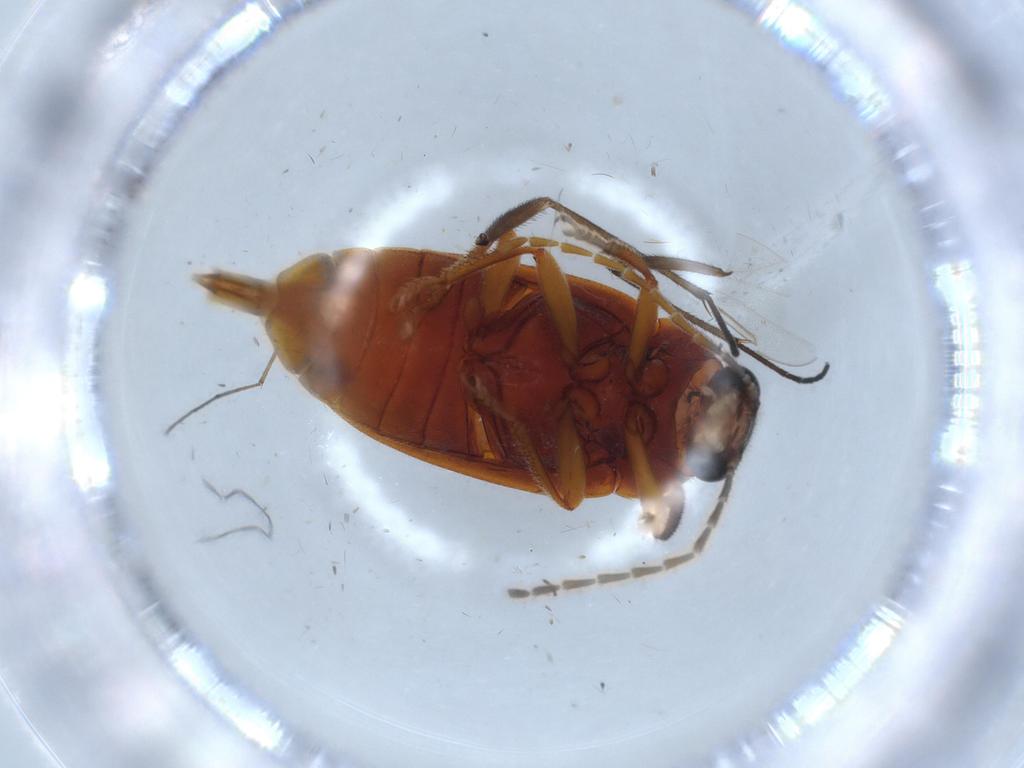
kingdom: Animalia
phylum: Arthropoda
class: Insecta
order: Coleoptera
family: Ptilodactylidae
